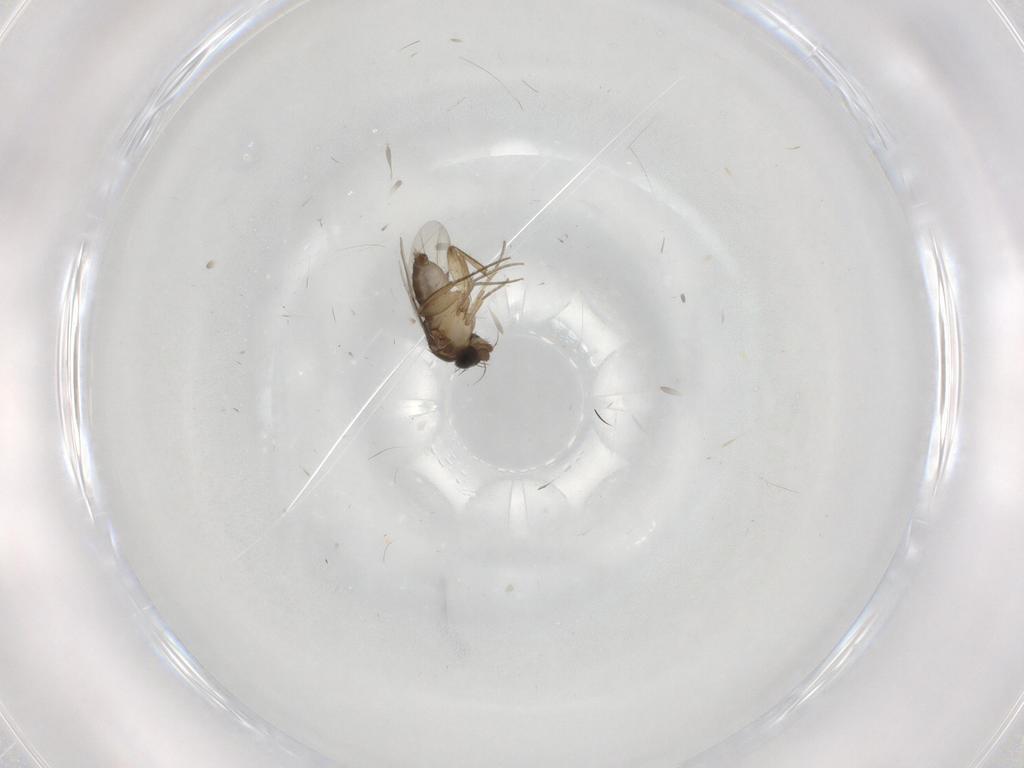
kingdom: Animalia
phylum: Arthropoda
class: Insecta
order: Diptera
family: Phoridae
